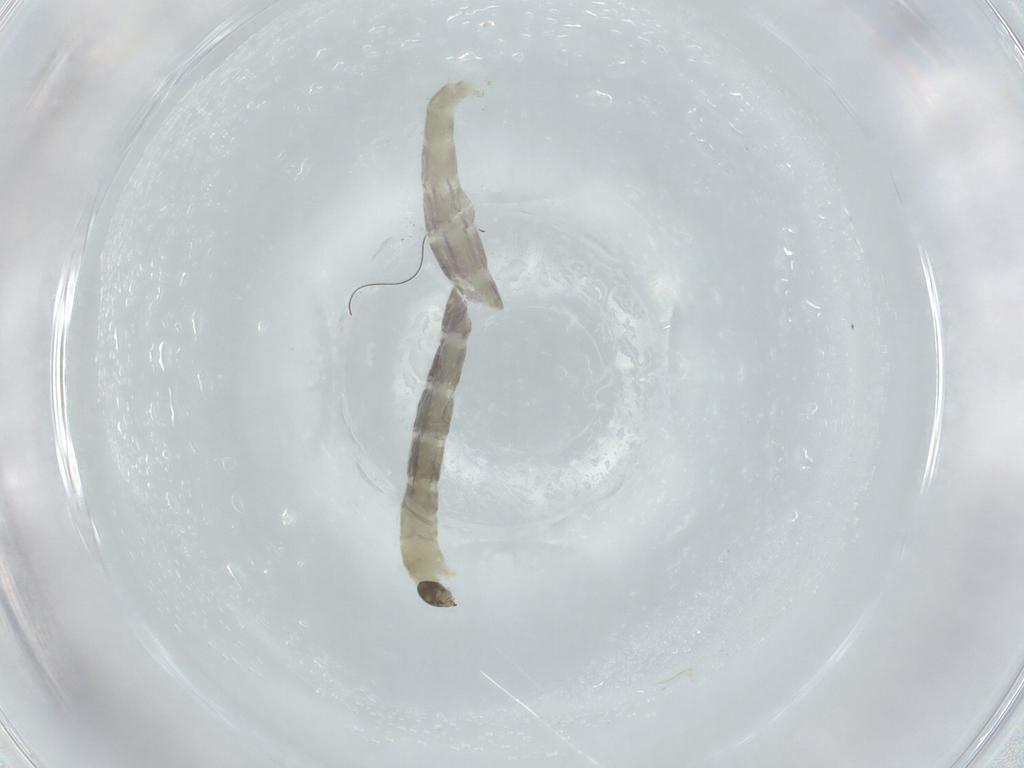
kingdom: Animalia
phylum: Arthropoda
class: Insecta
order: Diptera
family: Chironomidae
